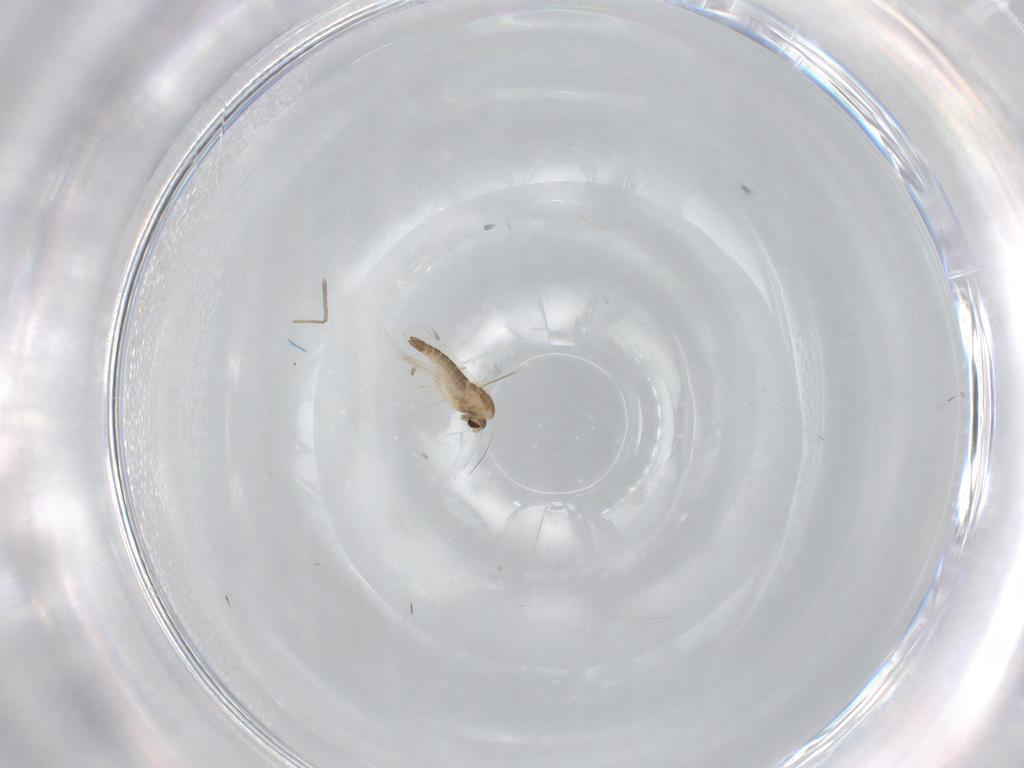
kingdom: Animalia
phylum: Arthropoda
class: Insecta
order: Diptera
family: Chironomidae
